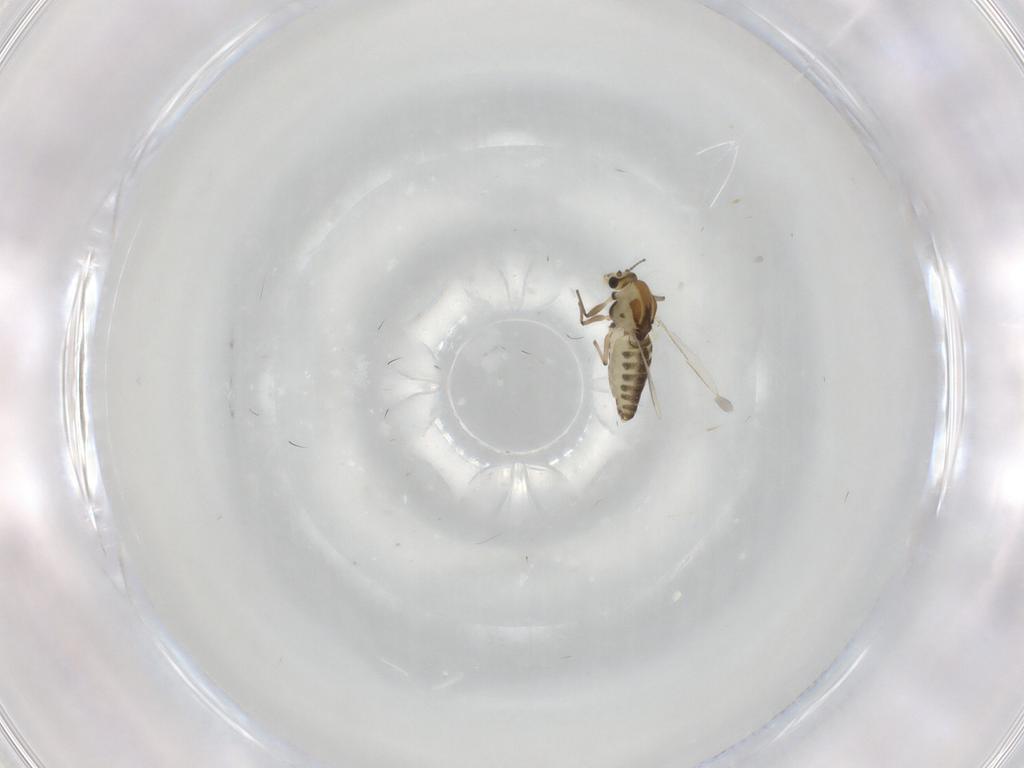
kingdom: Animalia
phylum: Arthropoda
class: Insecta
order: Diptera
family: Chironomidae
